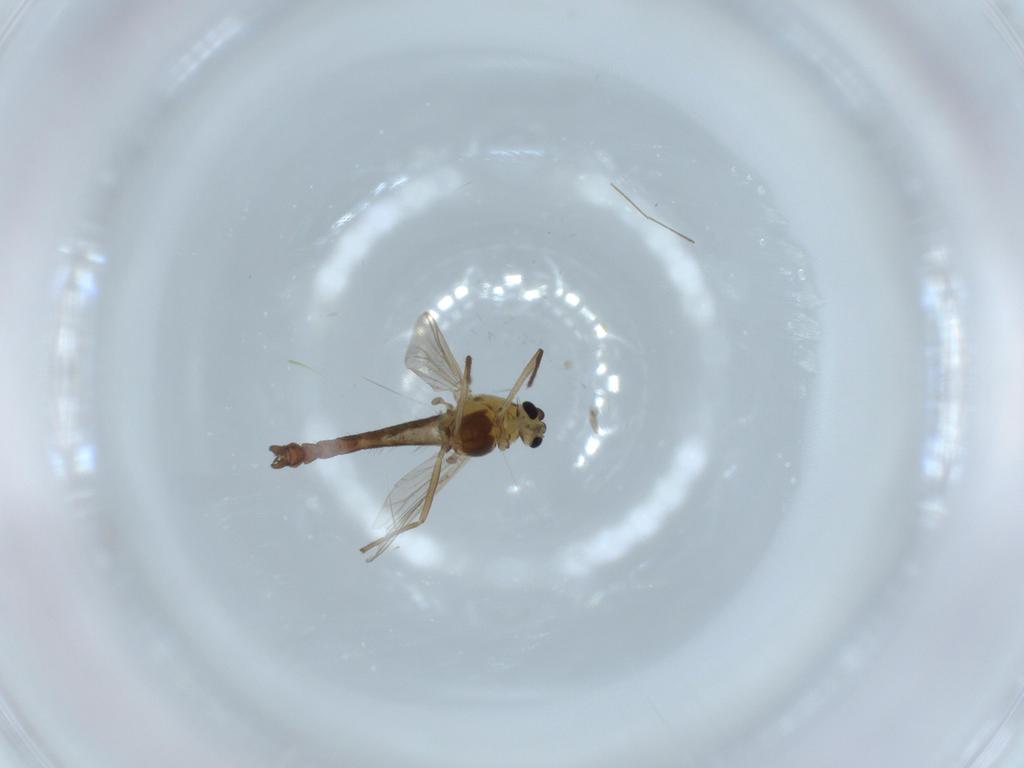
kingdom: Animalia
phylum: Arthropoda
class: Insecta
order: Diptera
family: Chironomidae
